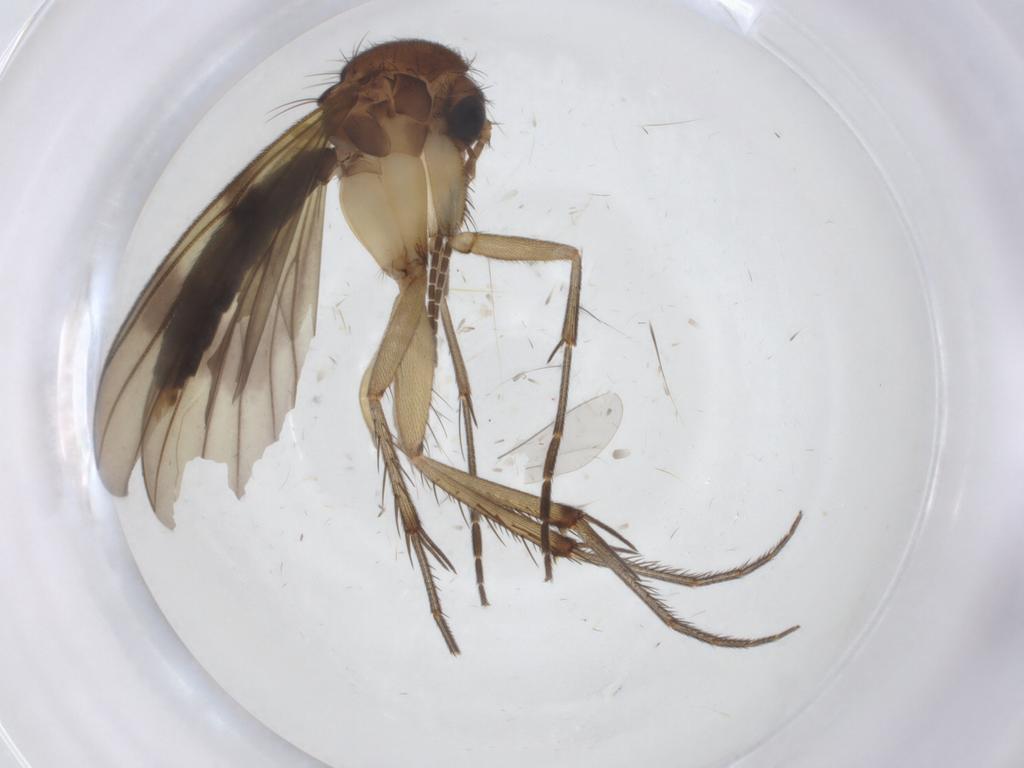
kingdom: Animalia
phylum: Arthropoda
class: Insecta
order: Diptera
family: Mycetophilidae
